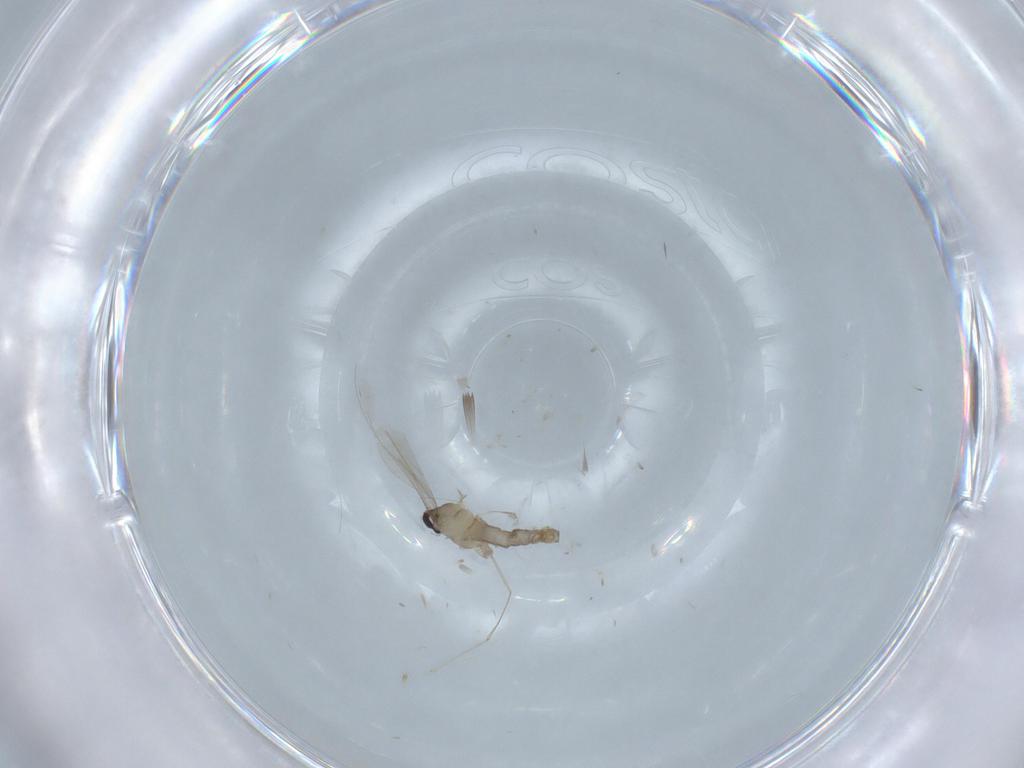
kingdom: Animalia
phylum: Arthropoda
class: Insecta
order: Diptera
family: Cecidomyiidae
